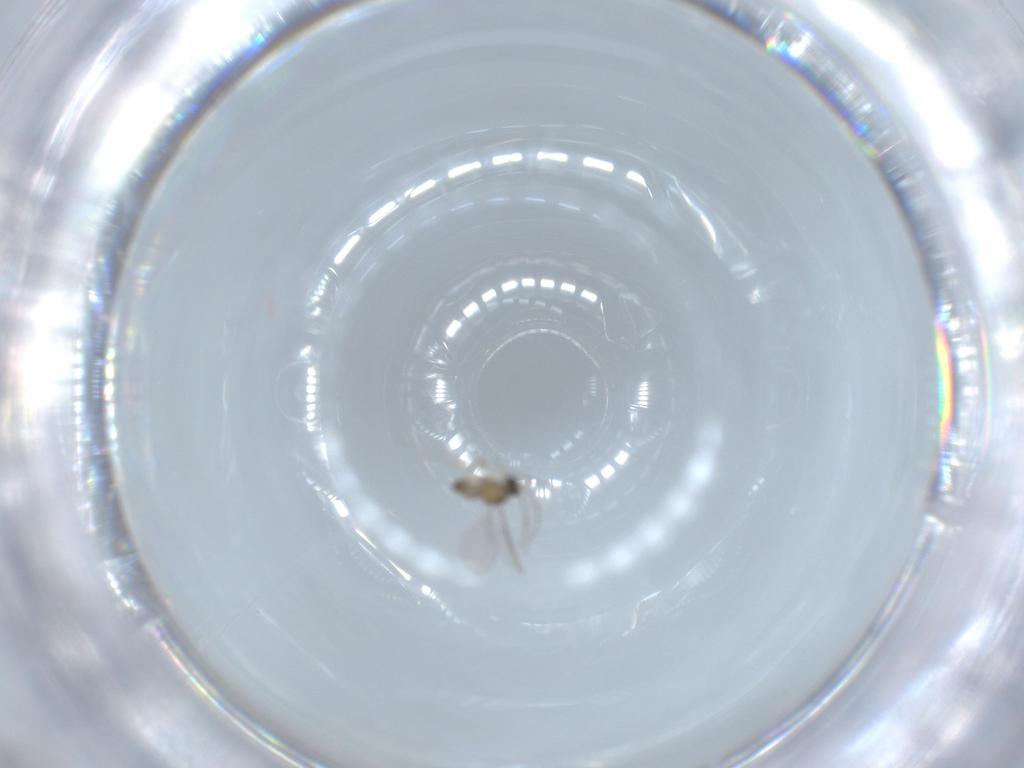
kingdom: Animalia
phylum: Arthropoda
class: Insecta
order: Diptera
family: Cecidomyiidae
